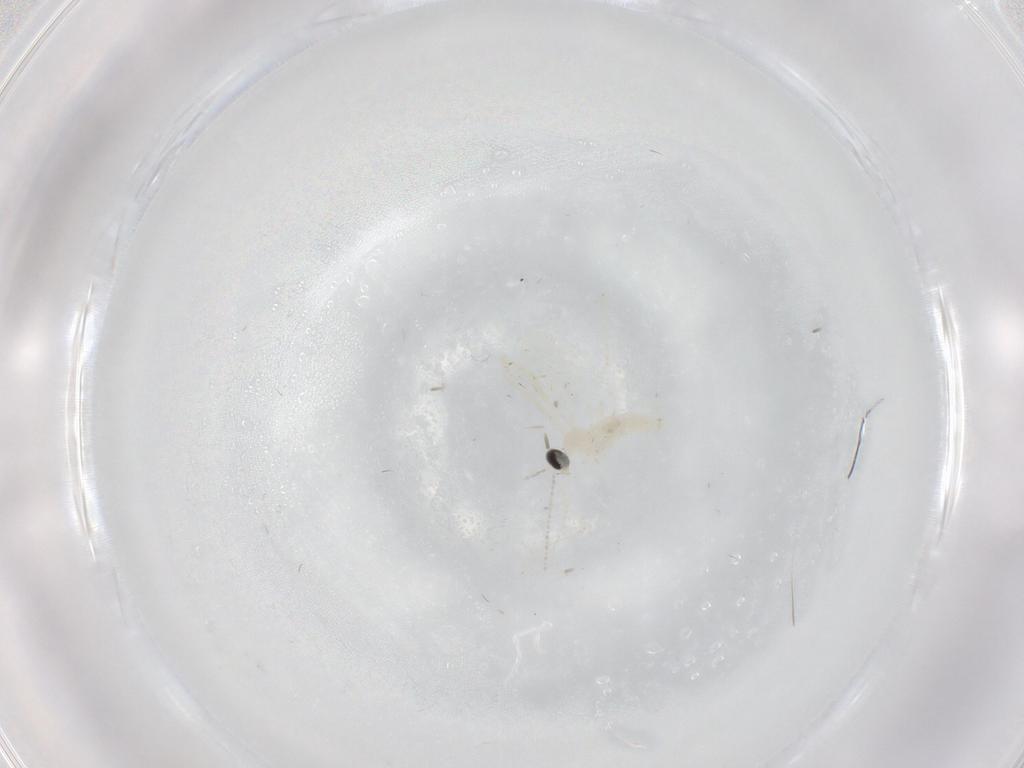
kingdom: Animalia
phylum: Arthropoda
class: Insecta
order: Diptera
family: Cecidomyiidae
